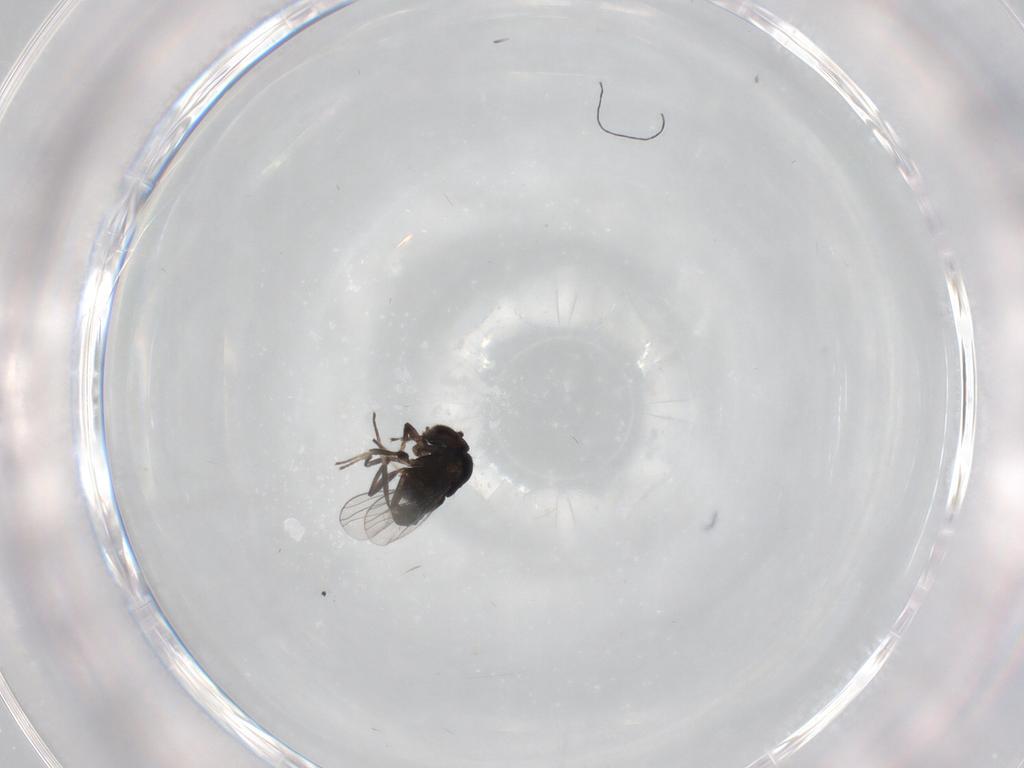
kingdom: Animalia
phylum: Arthropoda
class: Insecta
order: Diptera
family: Dolichopodidae
